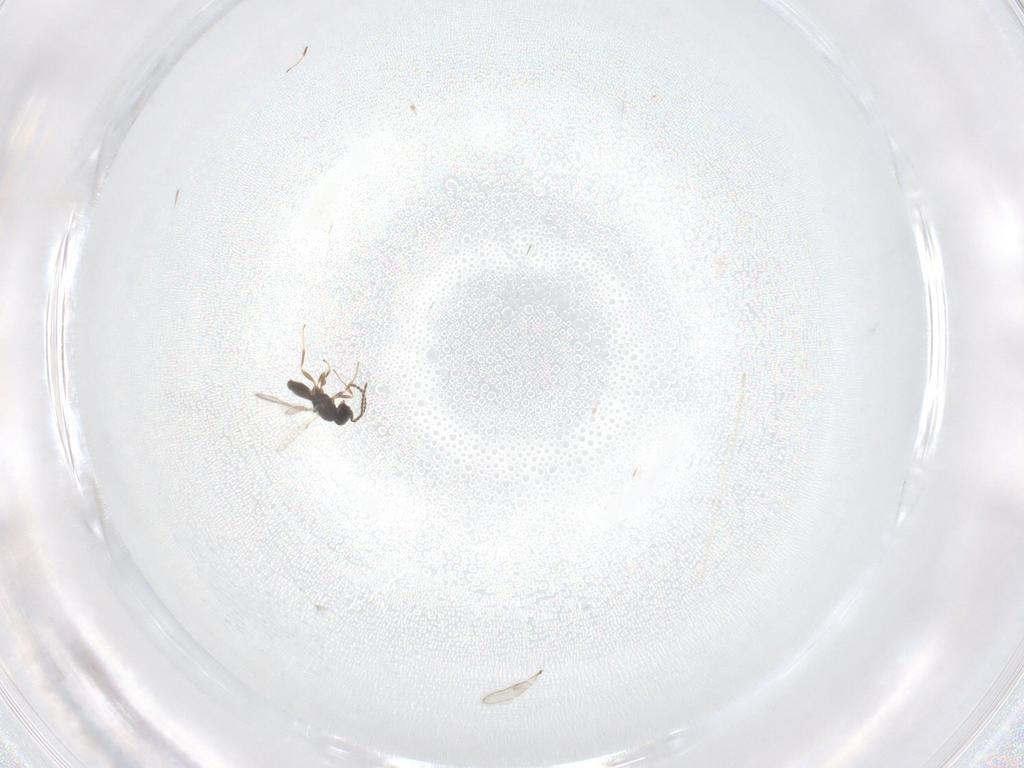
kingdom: Animalia
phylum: Arthropoda
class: Insecta
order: Hymenoptera
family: Scelionidae
